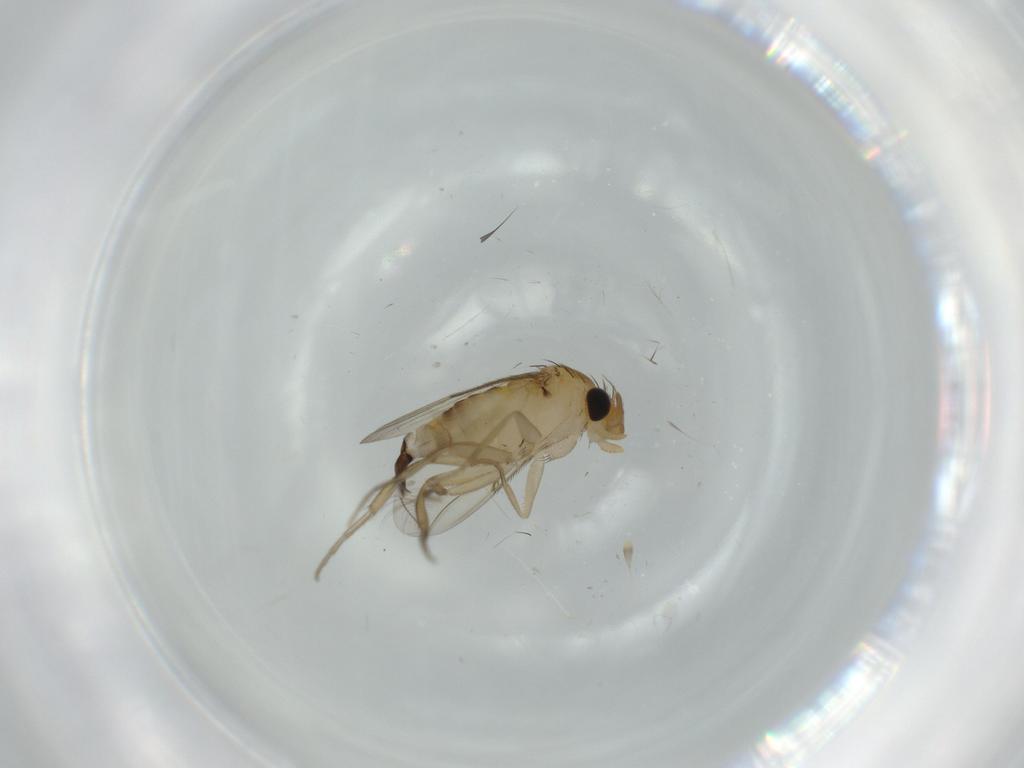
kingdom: Animalia
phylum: Arthropoda
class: Insecta
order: Diptera
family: Phoridae
